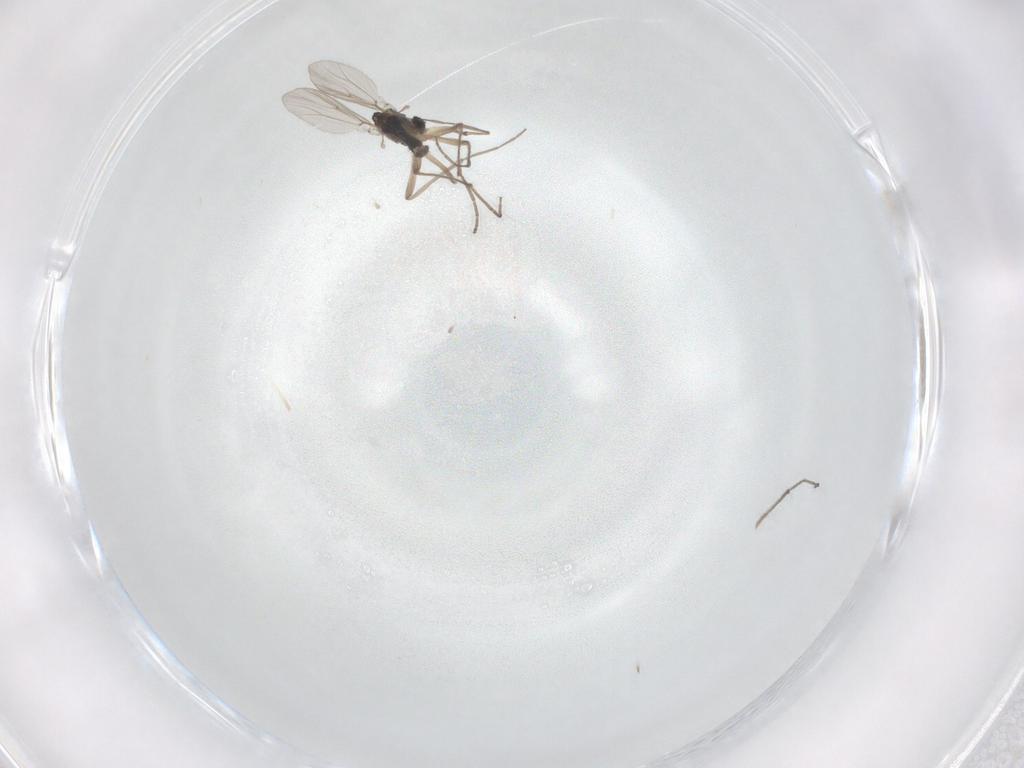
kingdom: Animalia
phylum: Arthropoda
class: Insecta
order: Diptera
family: Chironomidae
